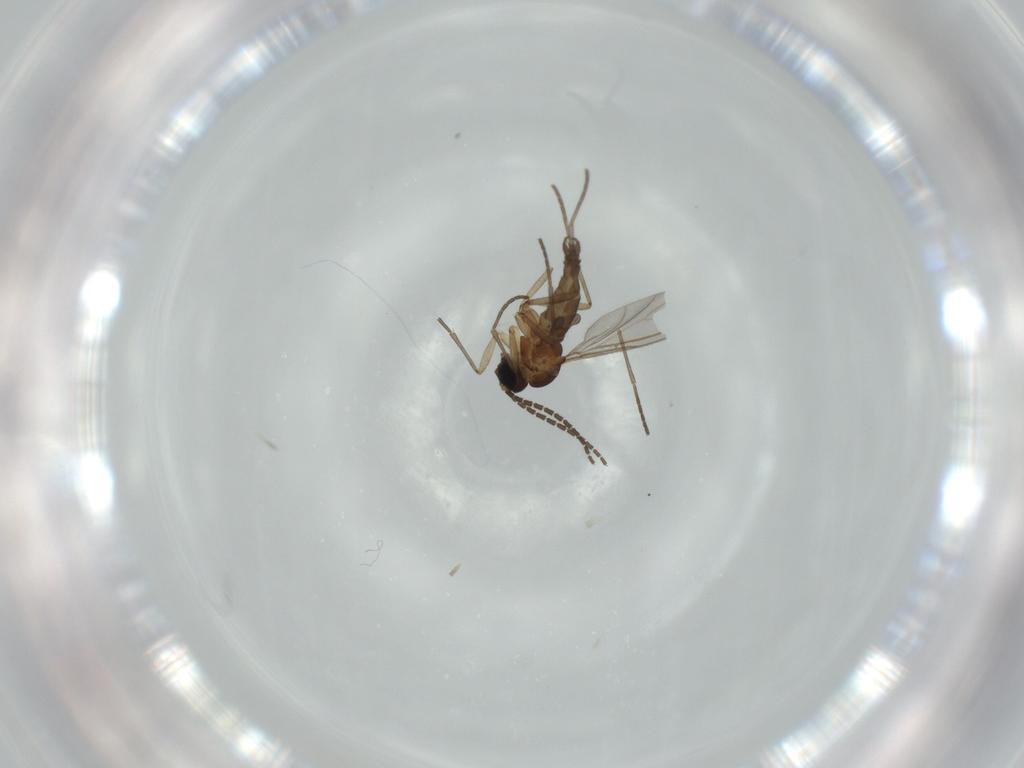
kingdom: Animalia
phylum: Arthropoda
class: Insecta
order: Diptera
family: Sciaridae
